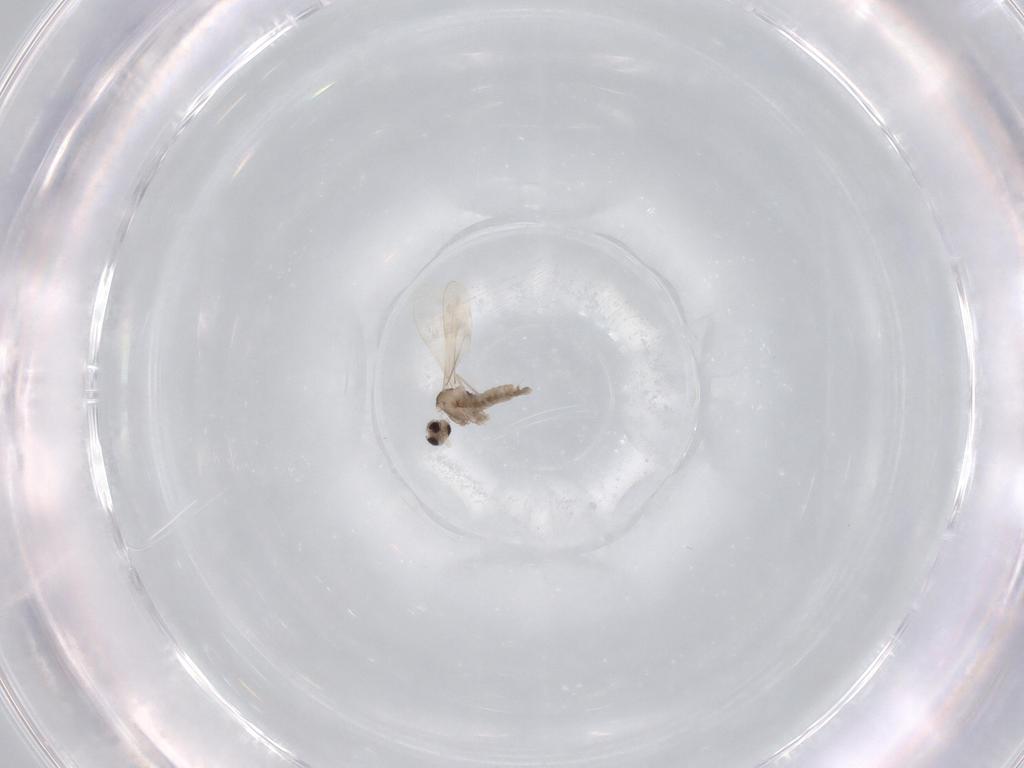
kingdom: Animalia
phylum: Arthropoda
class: Insecta
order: Diptera
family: Cecidomyiidae
